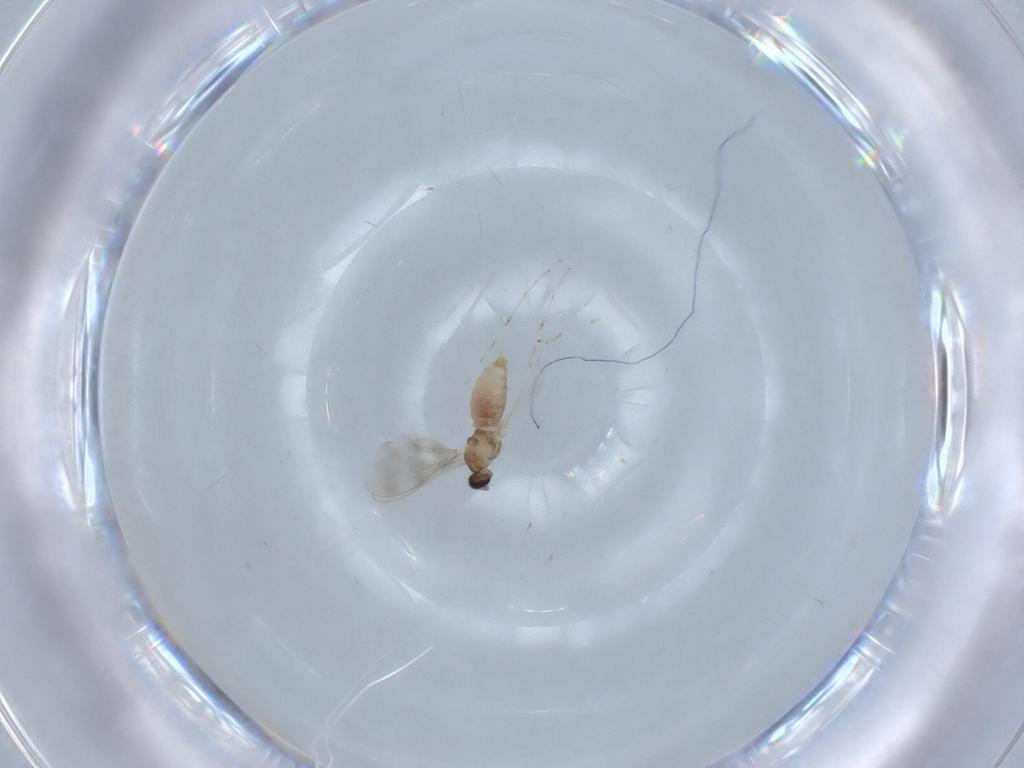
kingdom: Animalia
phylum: Arthropoda
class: Insecta
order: Diptera
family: Cecidomyiidae
